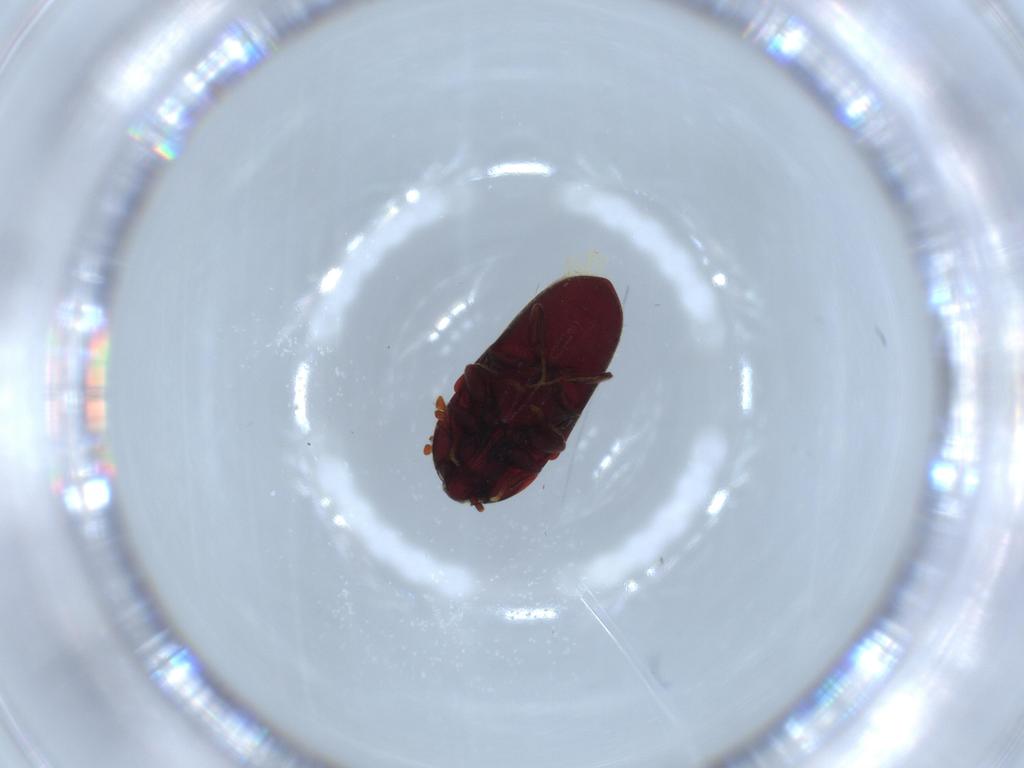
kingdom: Animalia
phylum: Arthropoda
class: Insecta
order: Coleoptera
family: Throscidae
